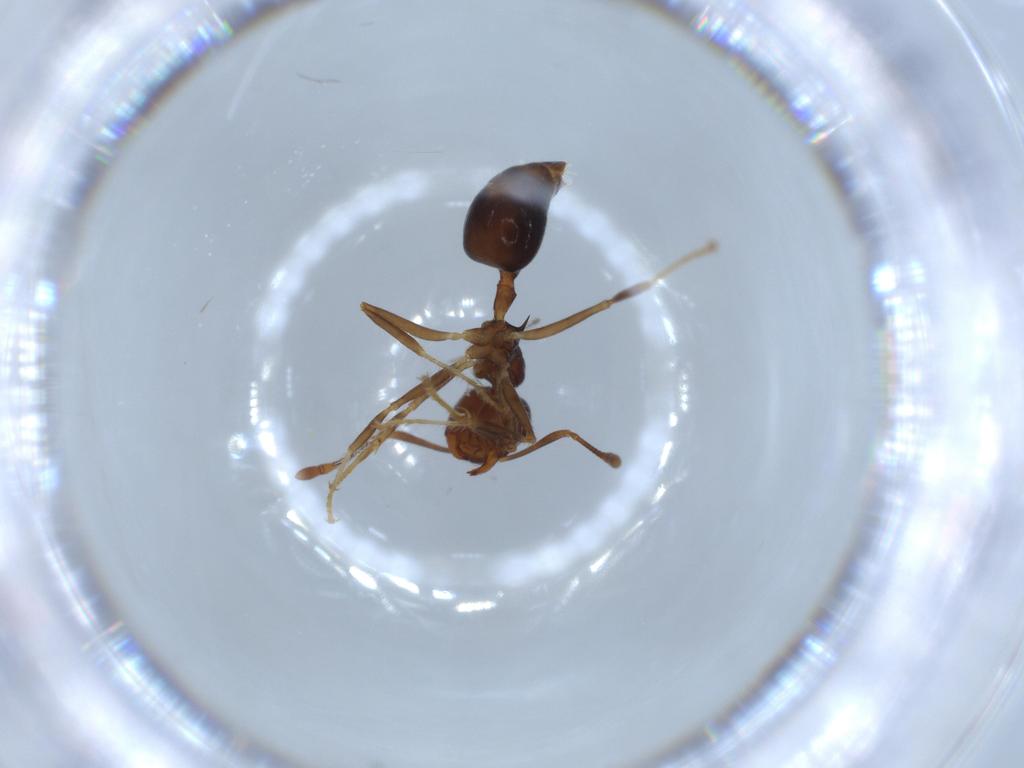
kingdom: Animalia
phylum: Arthropoda
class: Insecta
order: Hymenoptera
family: Formicidae
